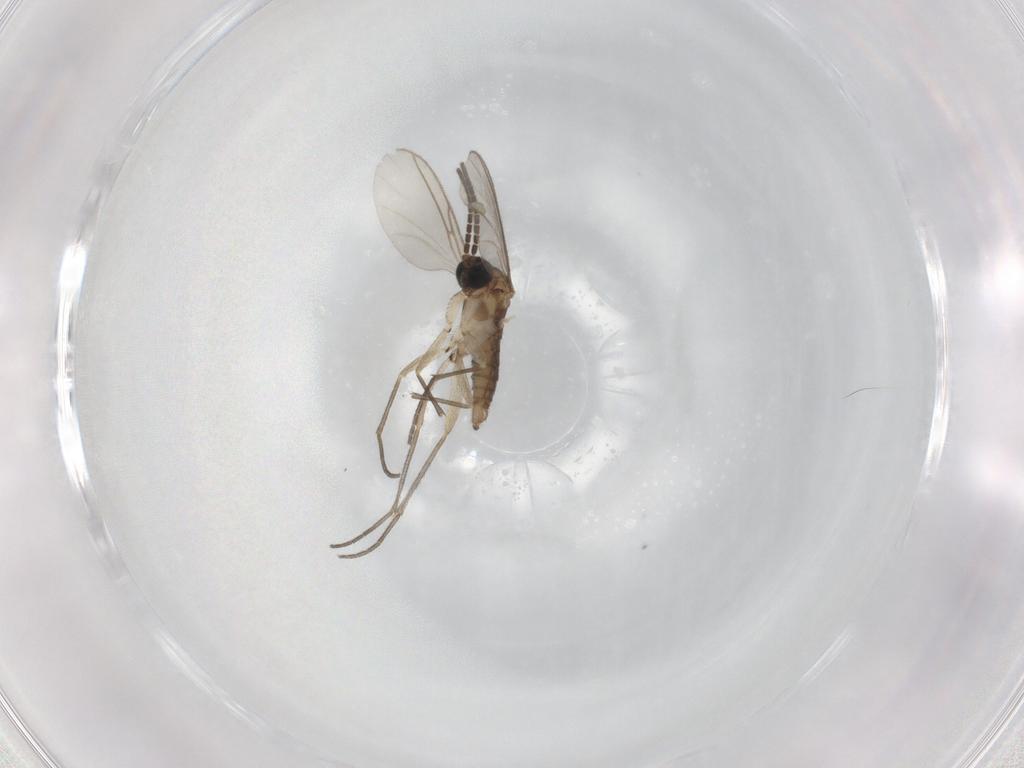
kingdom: Animalia
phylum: Arthropoda
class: Insecta
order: Diptera
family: Sciaridae
